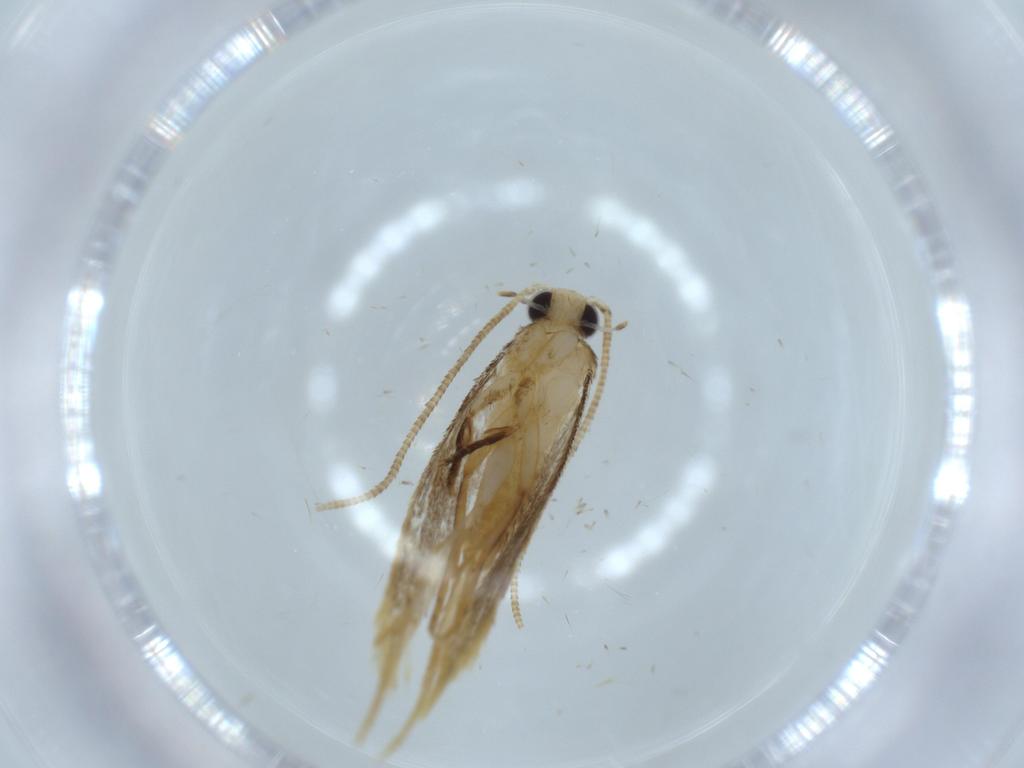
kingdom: Animalia
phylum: Arthropoda
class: Insecta
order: Lepidoptera
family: Tineidae
